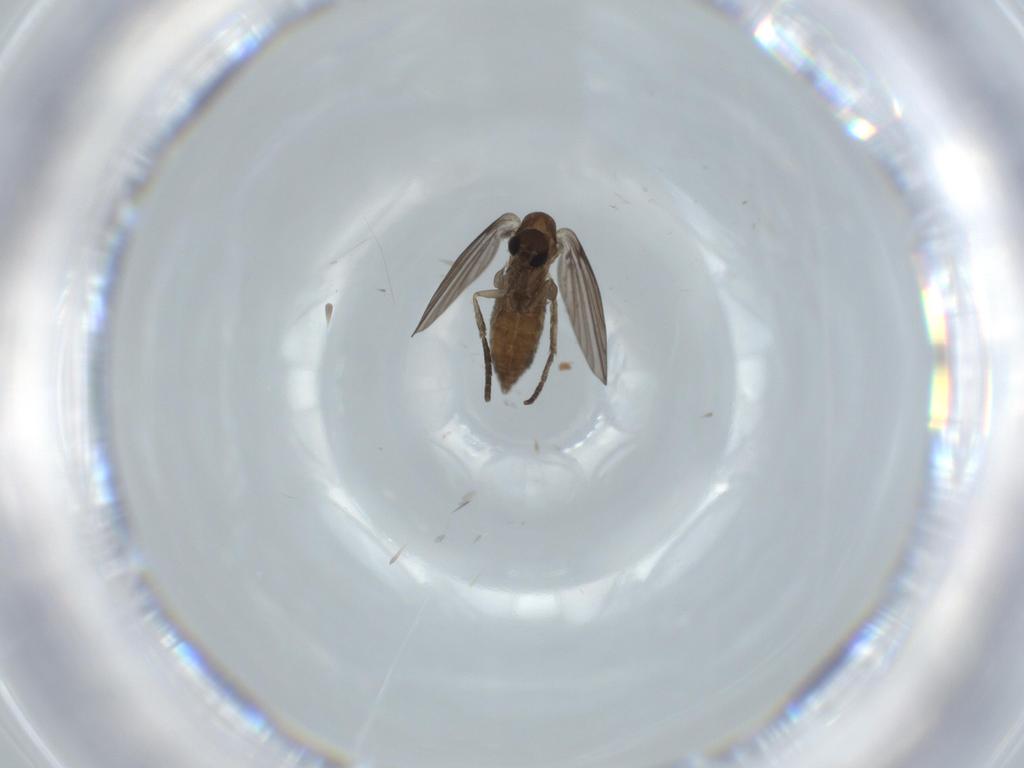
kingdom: Animalia
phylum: Arthropoda
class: Insecta
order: Diptera
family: Psychodidae
